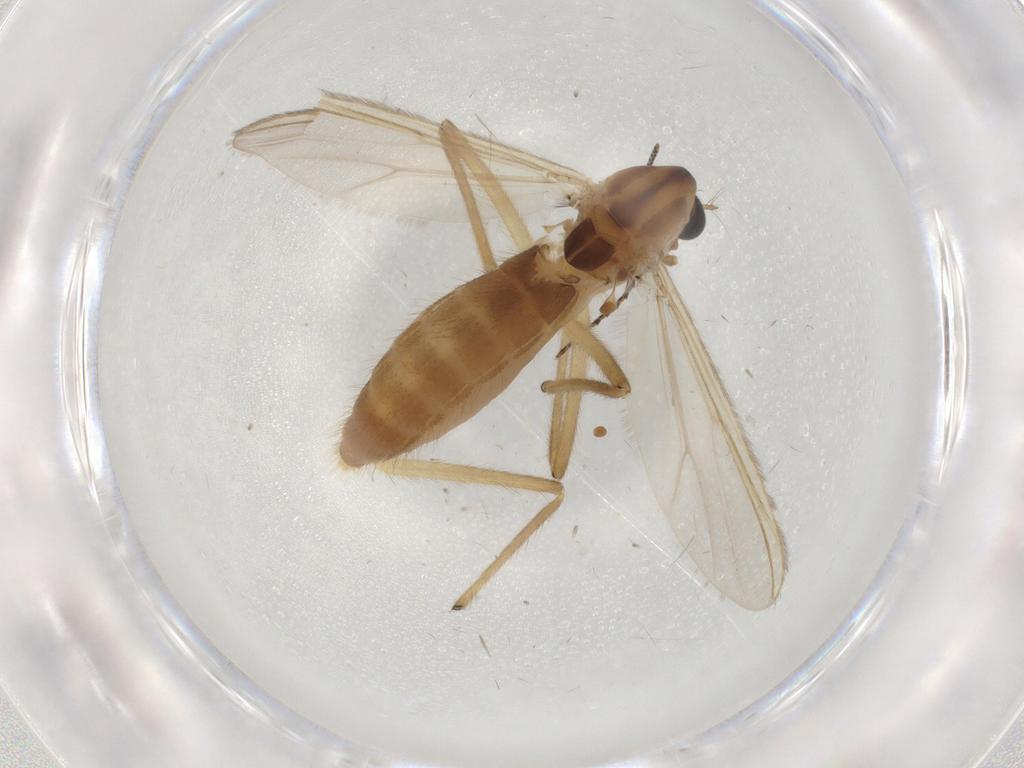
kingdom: Animalia
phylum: Arthropoda
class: Insecta
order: Diptera
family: Chironomidae
